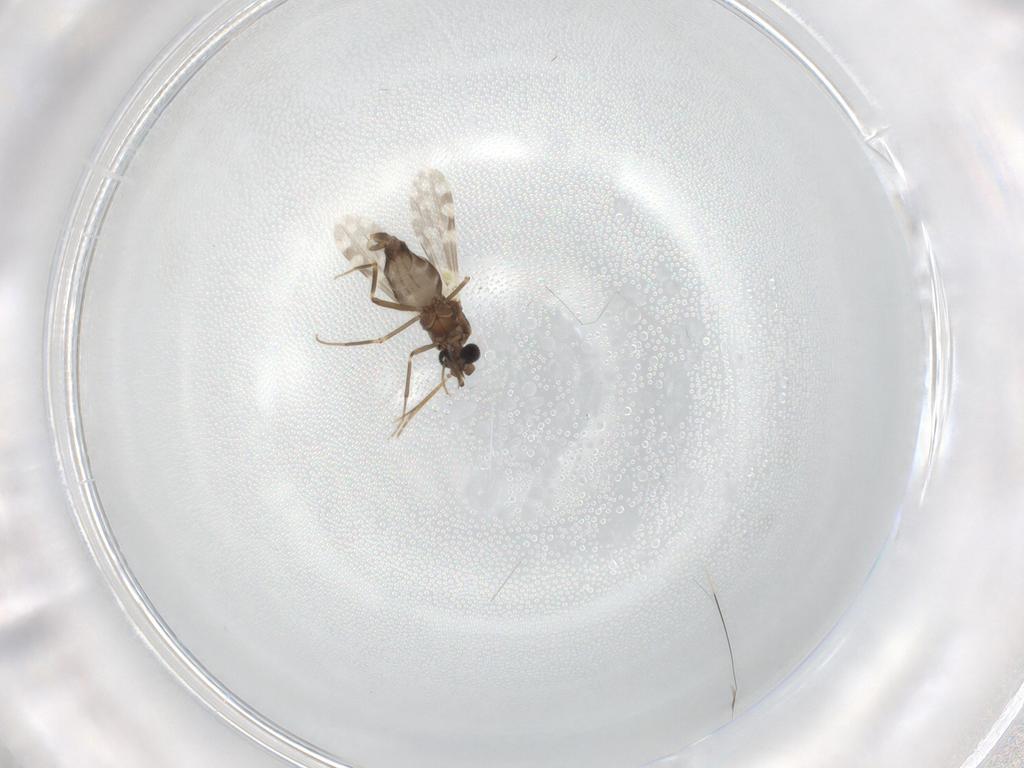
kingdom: Animalia
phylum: Arthropoda
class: Insecta
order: Diptera
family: Ceratopogonidae
